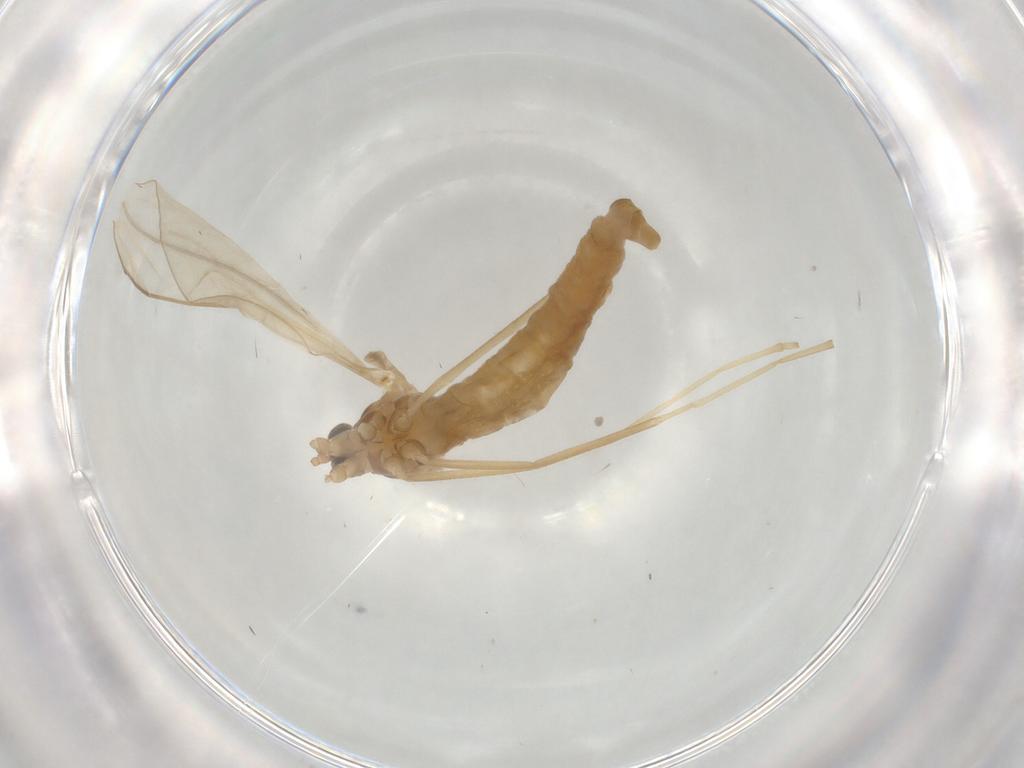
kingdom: Animalia
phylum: Arthropoda
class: Insecta
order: Diptera
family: Cecidomyiidae
